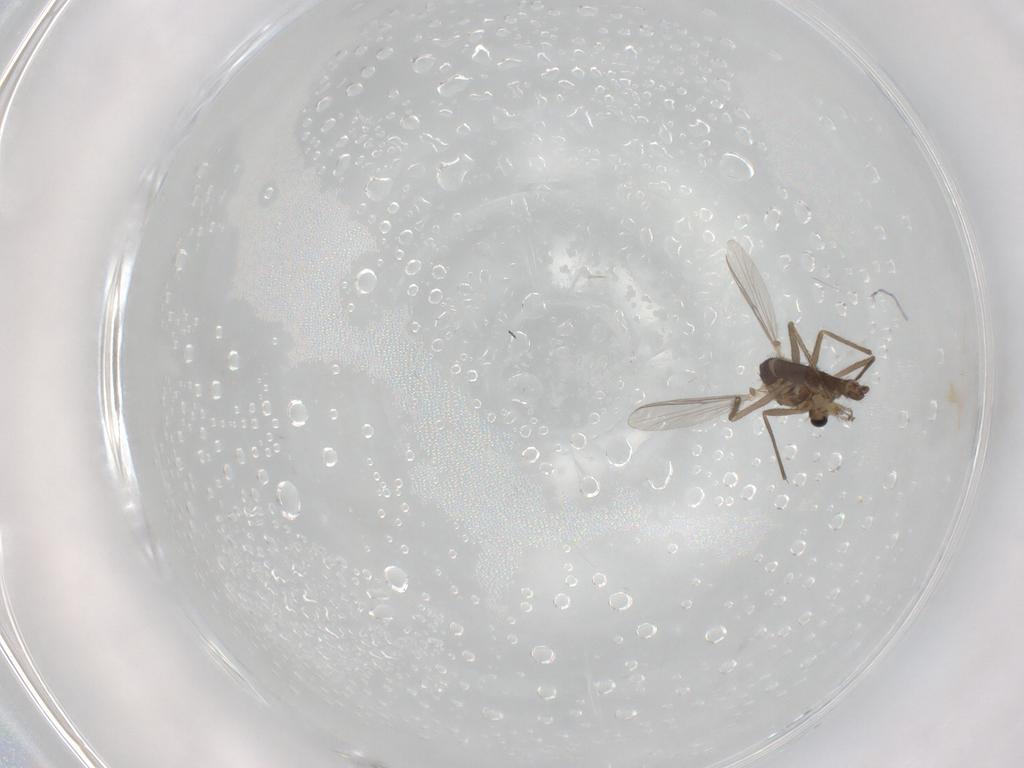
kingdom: Animalia
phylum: Arthropoda
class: Insecta
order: Diptera
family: Chironomidae
